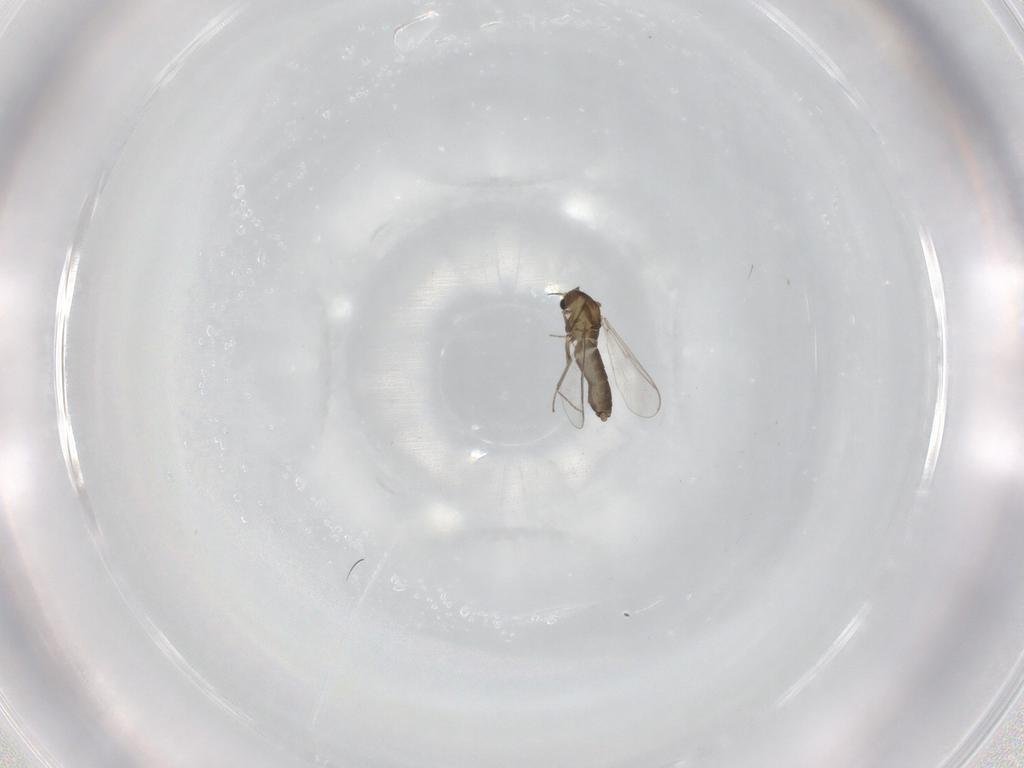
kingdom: Animalia
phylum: Arthropoda
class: Insecta
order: Diptera
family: Chironomidae
